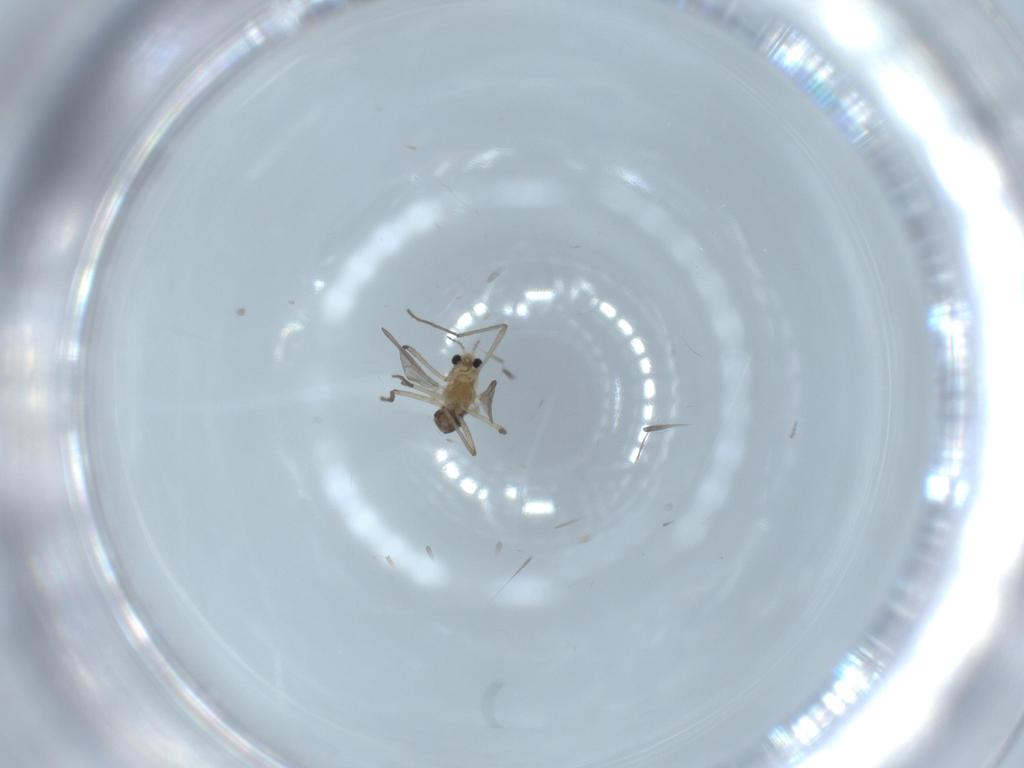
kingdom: Animalia
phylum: Arthropoda
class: Insecta
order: Diptera
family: Chironomidae
